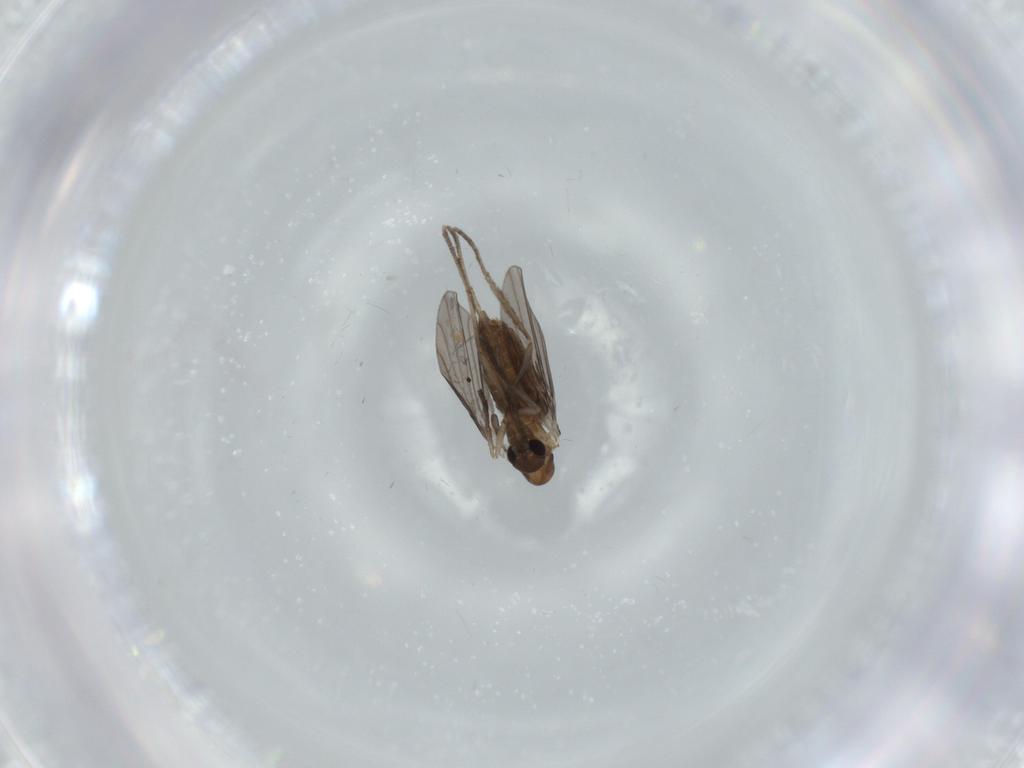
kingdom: Animalia
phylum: Arthropoda
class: Insecta
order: Diptera
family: Psychodidae
